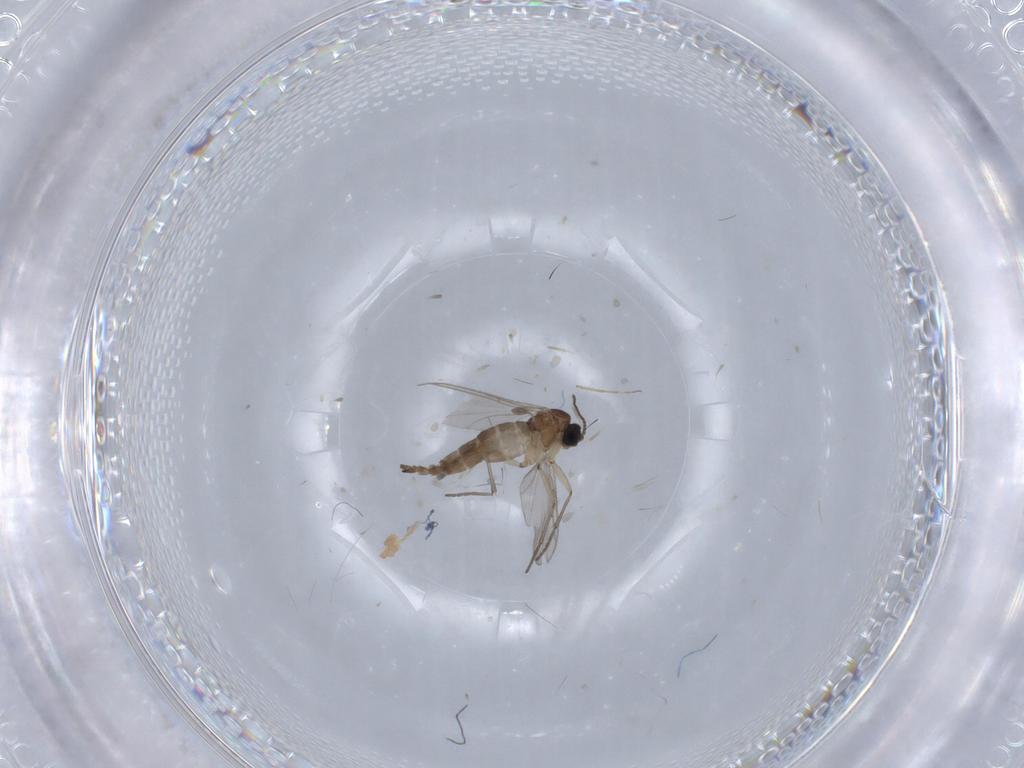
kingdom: Animalia
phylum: Arthropoda
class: Insecta
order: Diptera
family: Sciaridae
